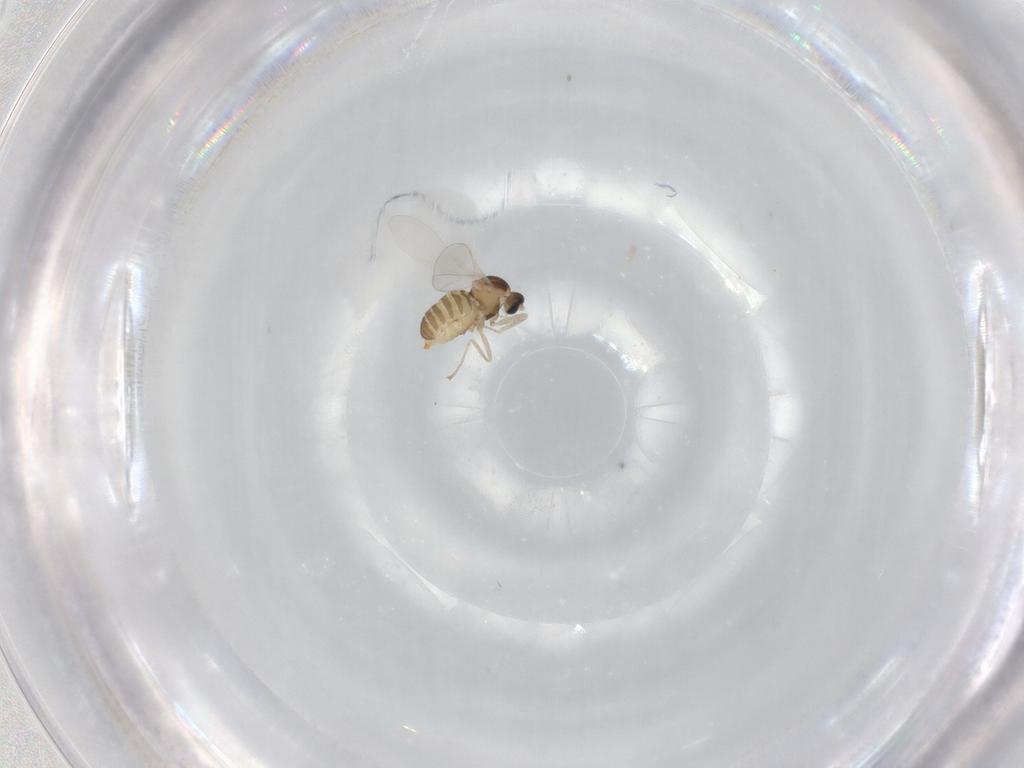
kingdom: Animalia
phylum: Arthropoda
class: Insecta
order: Diptera
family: Cecidomyiidae
